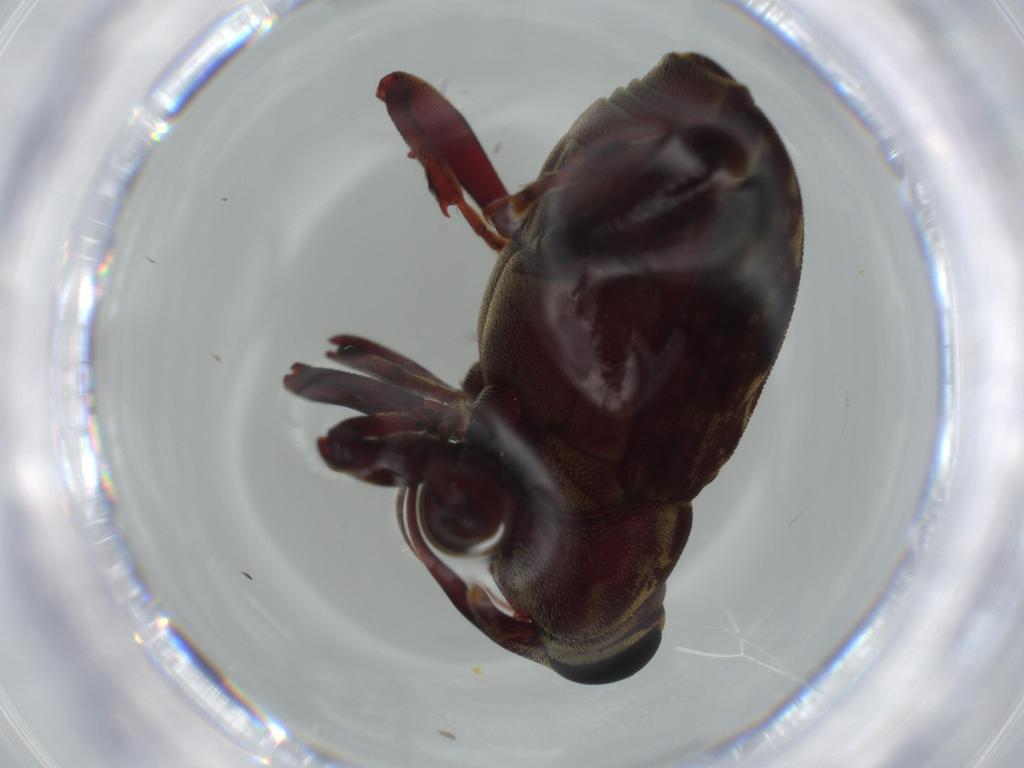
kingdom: Animalia
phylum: Arthropoda
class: Insecta
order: Coleoptera
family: Curculionidae
